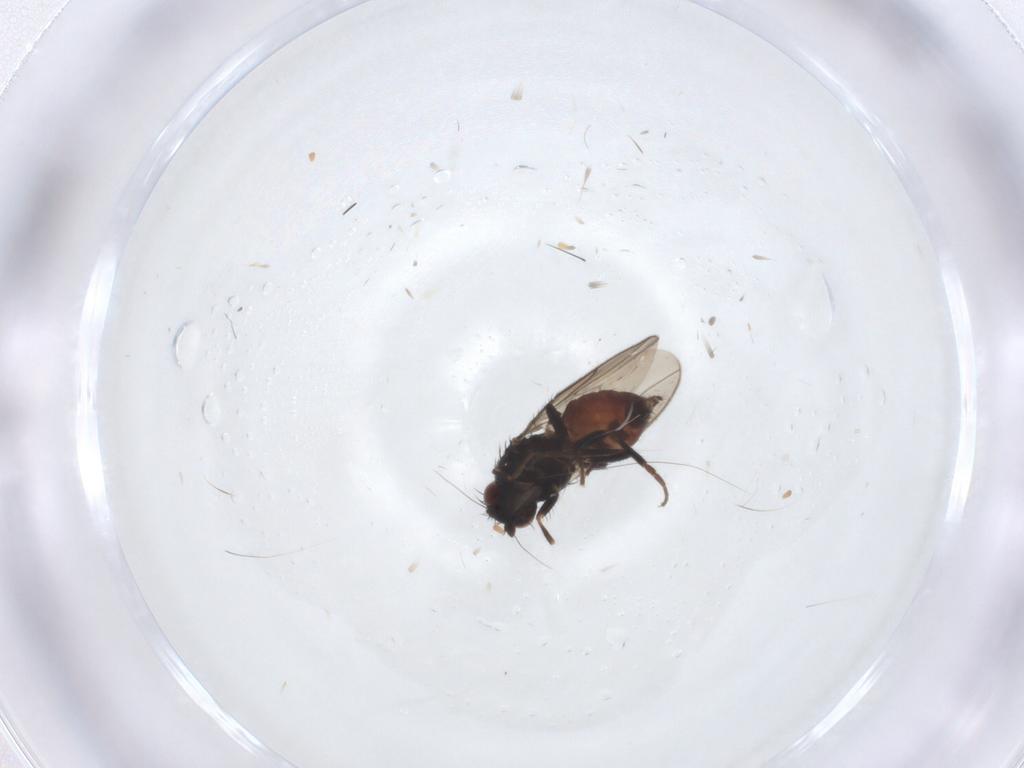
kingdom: Animalia
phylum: Arthropoda
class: Insecta
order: Diptera
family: Sphaeroceridae
